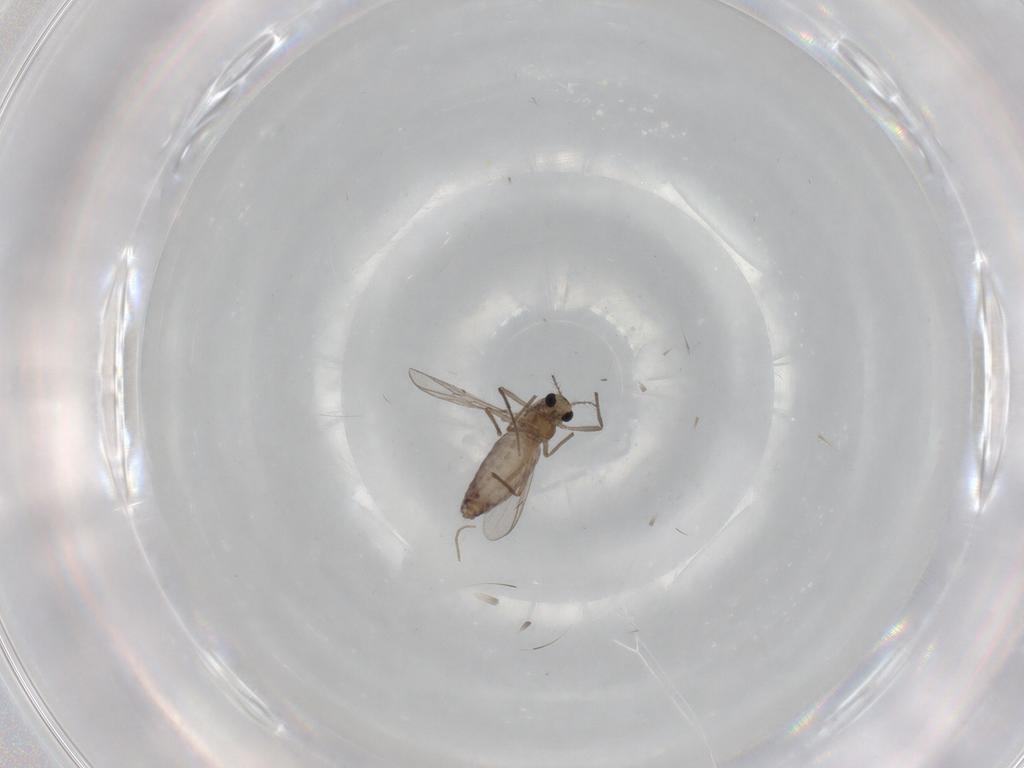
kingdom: Animalia
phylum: Arthropoda
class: Insecta
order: Diptera
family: Chironomidae
